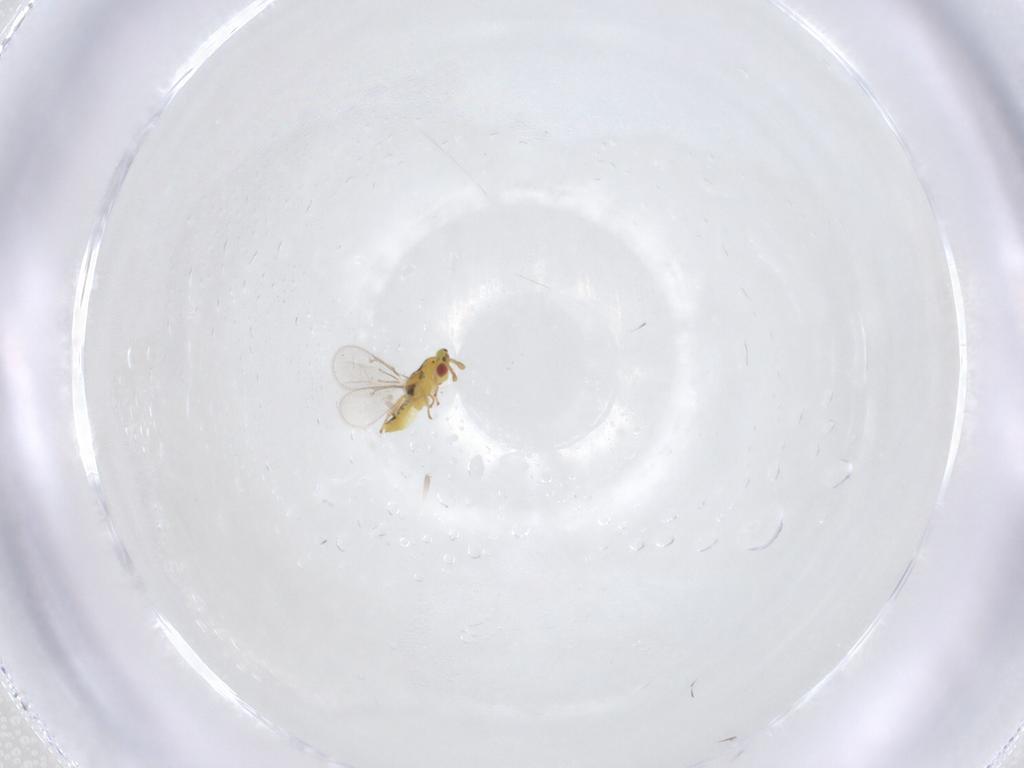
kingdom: Animalia
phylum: Arthropoda
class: Insecta
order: Hymenoptera
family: Eulophidae
